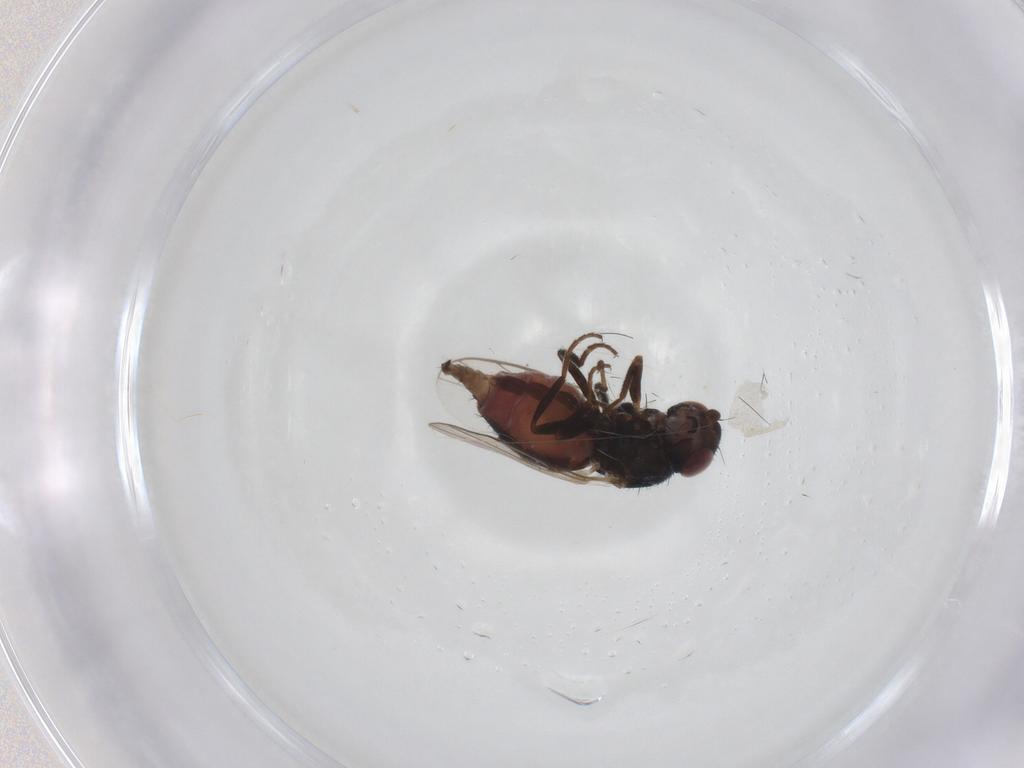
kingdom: Animalia
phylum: Arthropoda
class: Insecta
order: Diptera
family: Chloropidae
